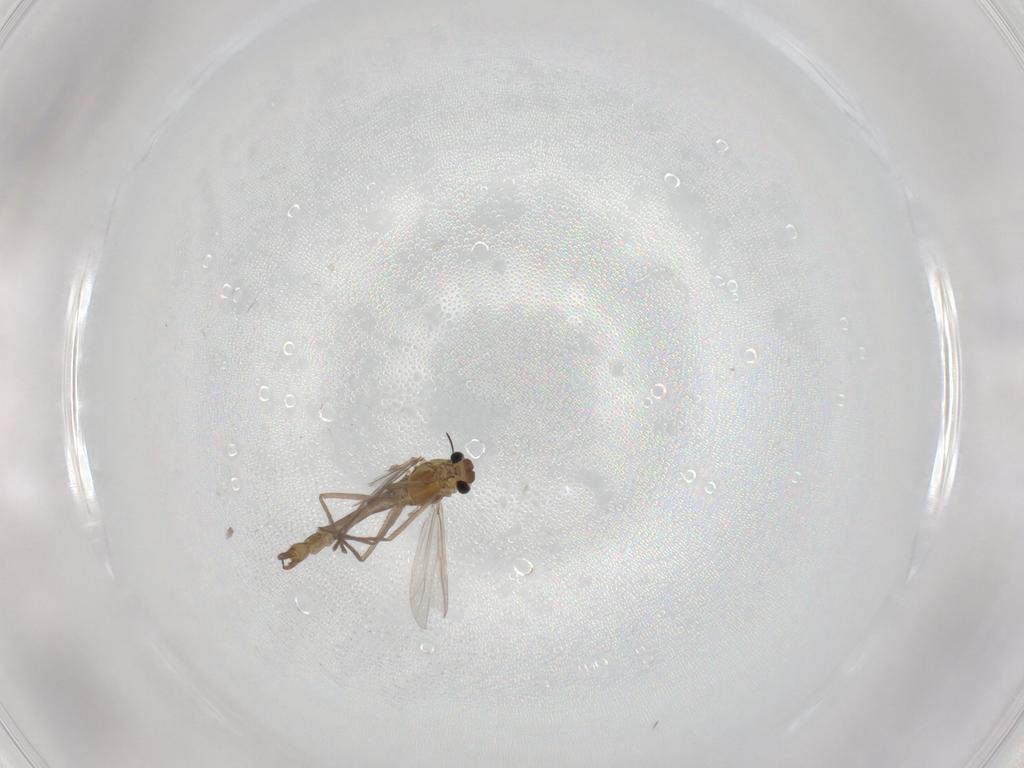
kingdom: Animalia
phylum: Arthropoda
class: Insecta
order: Diptera
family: Chironomidae
